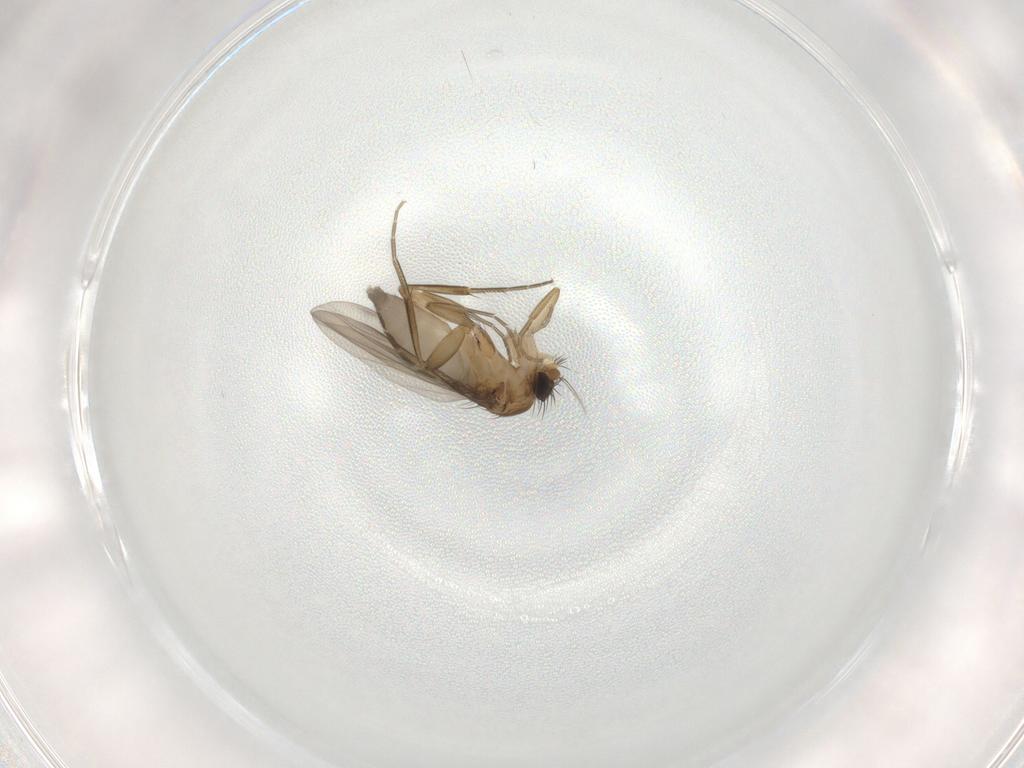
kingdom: Animalia
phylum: Arthropoda
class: Insecta
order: Diptera
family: Phoridae
